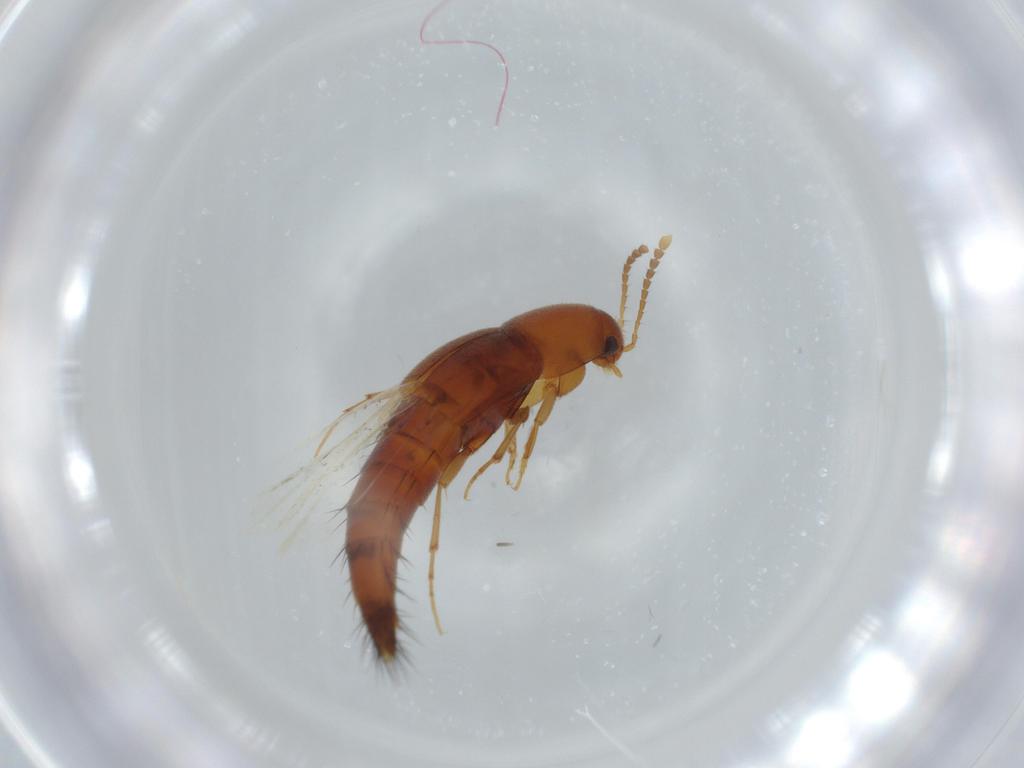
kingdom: Animalia
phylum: Arthropoda
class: Insecta
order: Coleoptera
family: Staphylinidae
